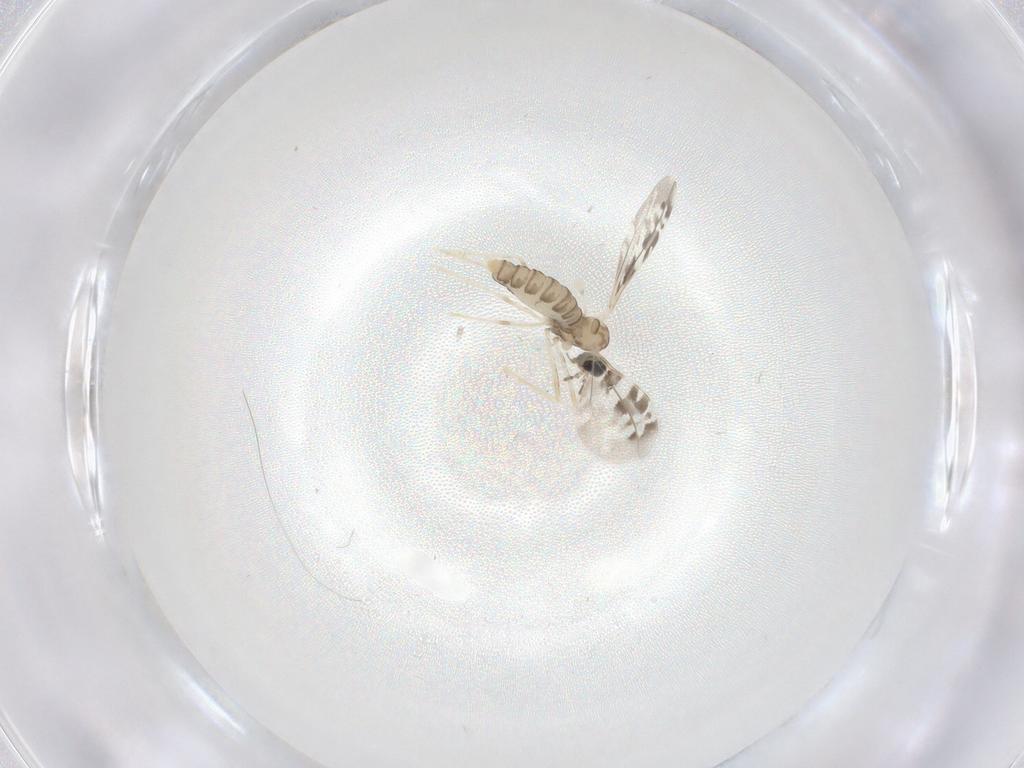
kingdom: Animalia
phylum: Arthropoda
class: Insecta
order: Diptera
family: Cecidomyiidae
